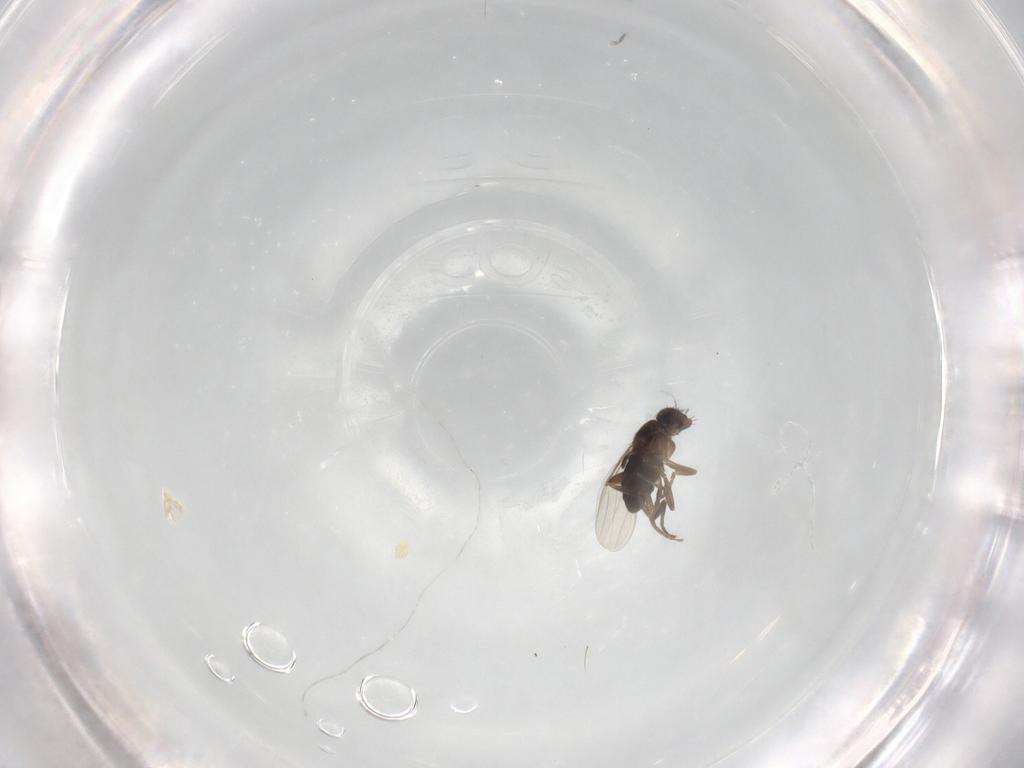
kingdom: Animalia
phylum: Arthropoda
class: Insecta
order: Diptera
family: Phoridae
